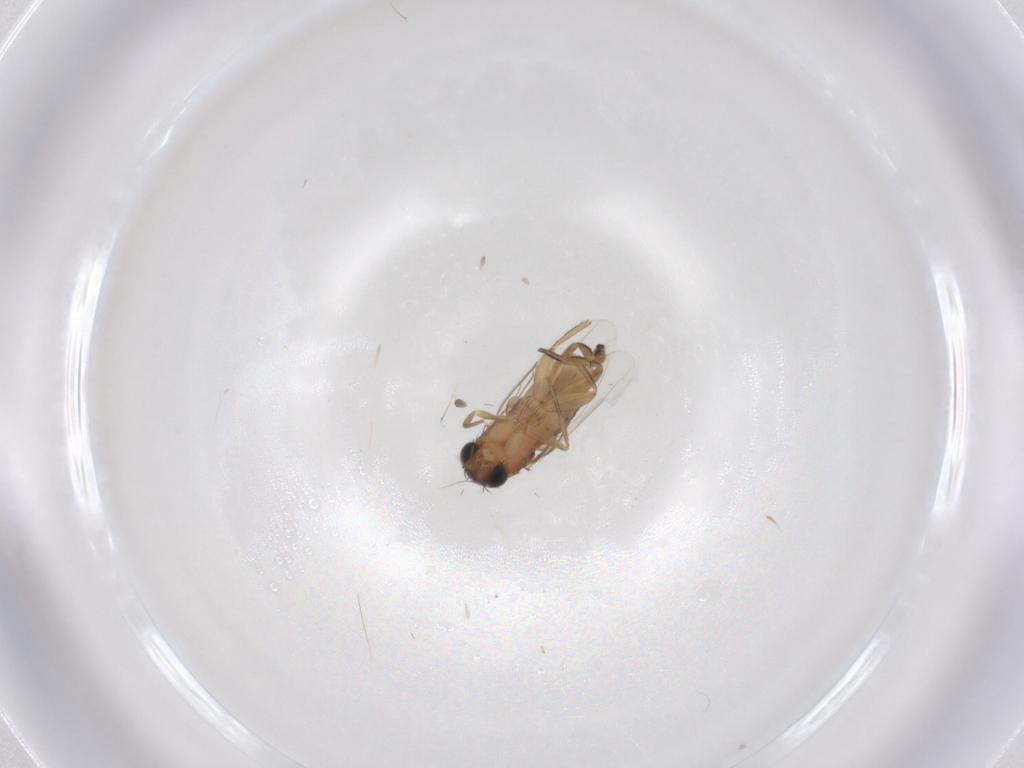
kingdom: Animalia
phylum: Arthropoda
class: Insecta
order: Diptera
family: Phoridae
